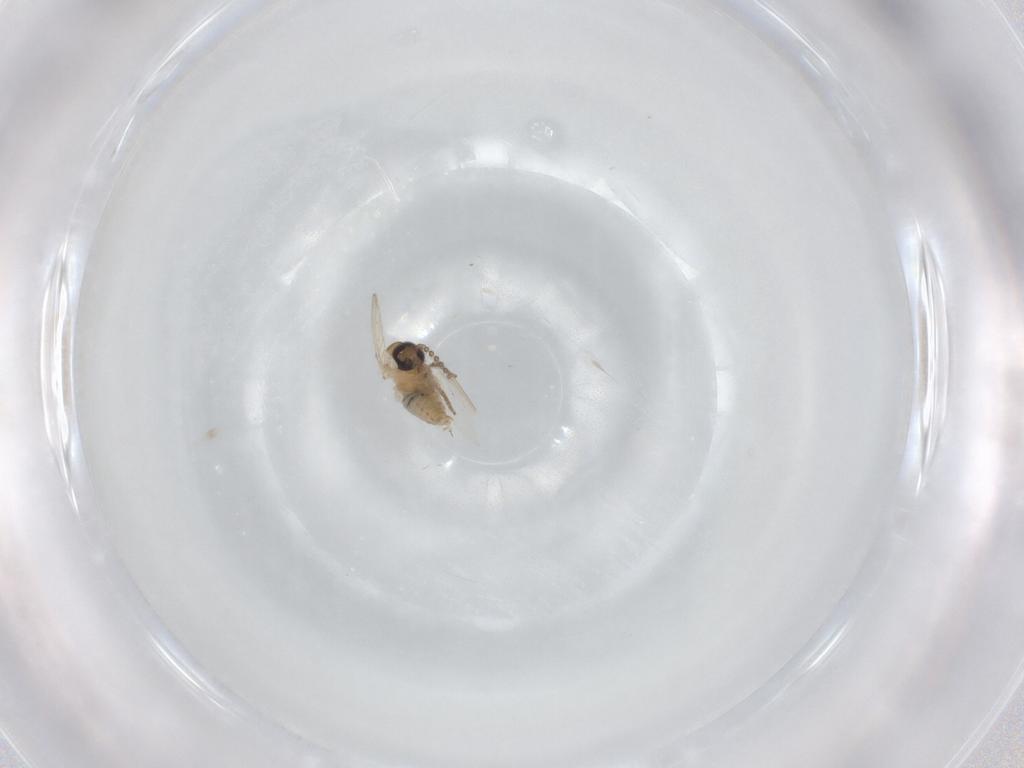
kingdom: Animalia
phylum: Arthropoda
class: Insecta
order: Diptera
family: Psychodidae
